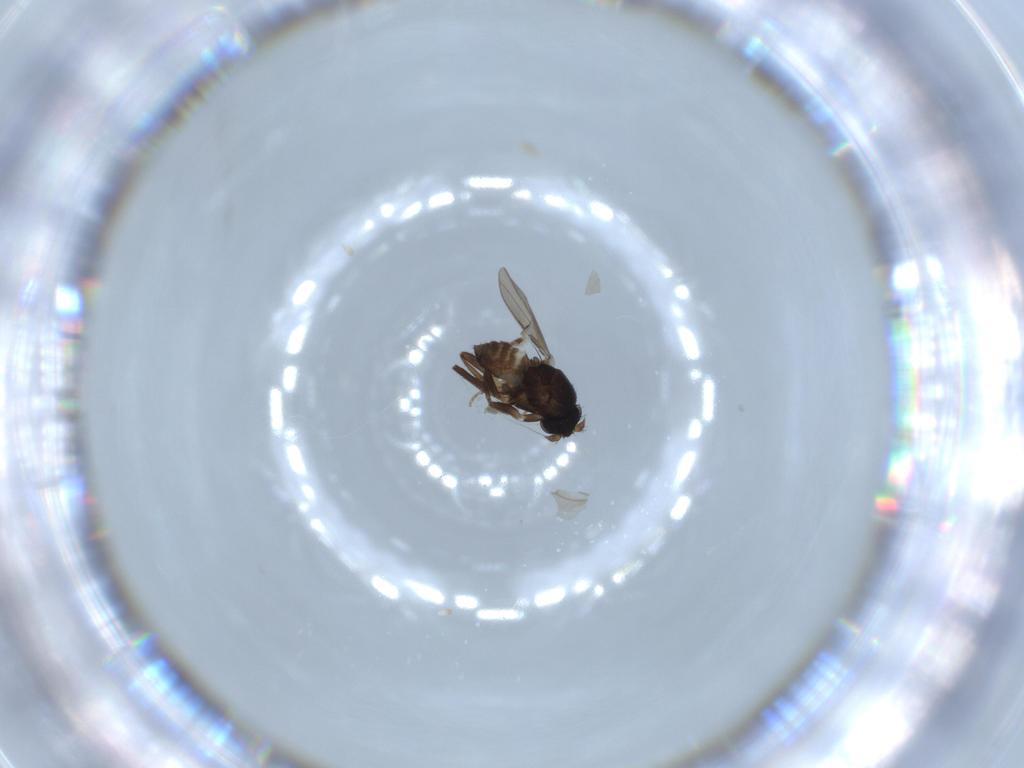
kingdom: Animalia
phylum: Arthropoda
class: Insecta
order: Diptera
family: Sphaeroceridae
